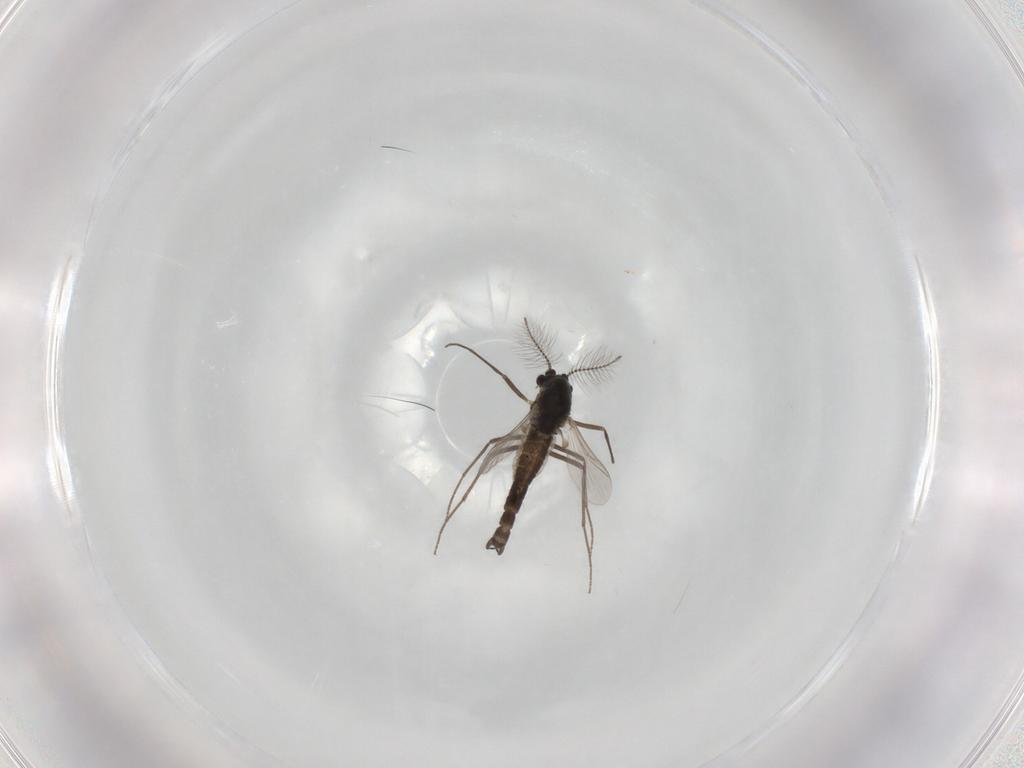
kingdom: Animalia
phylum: Arthropoda
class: Insecta
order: Diptera
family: Chironomidae
